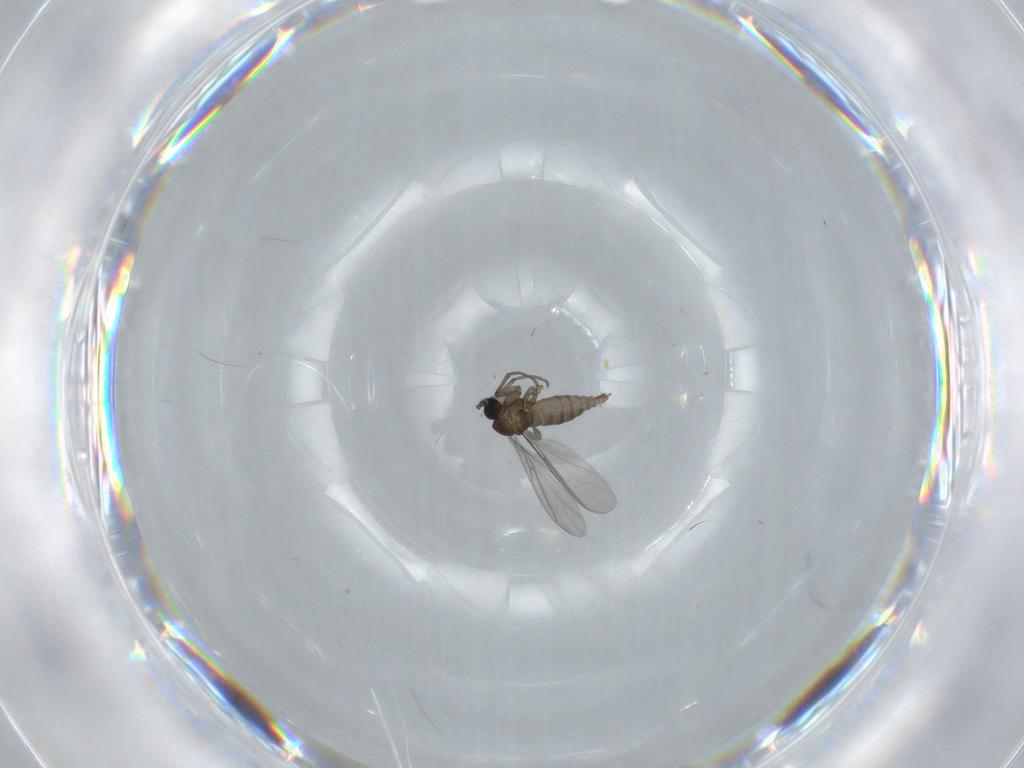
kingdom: Animalia
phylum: Arthropoda
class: Insecta
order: Diptera
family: Sciaridae
